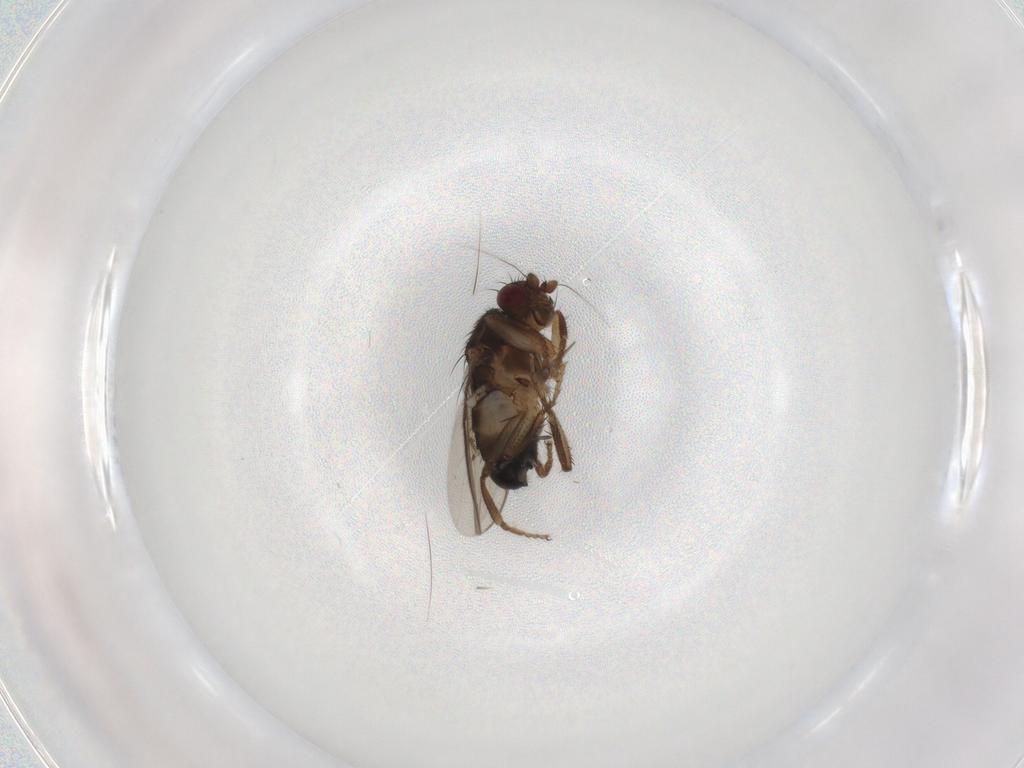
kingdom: Animalia
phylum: Arthropoda
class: Insecta
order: Diptera
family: Sphaeroceridae
